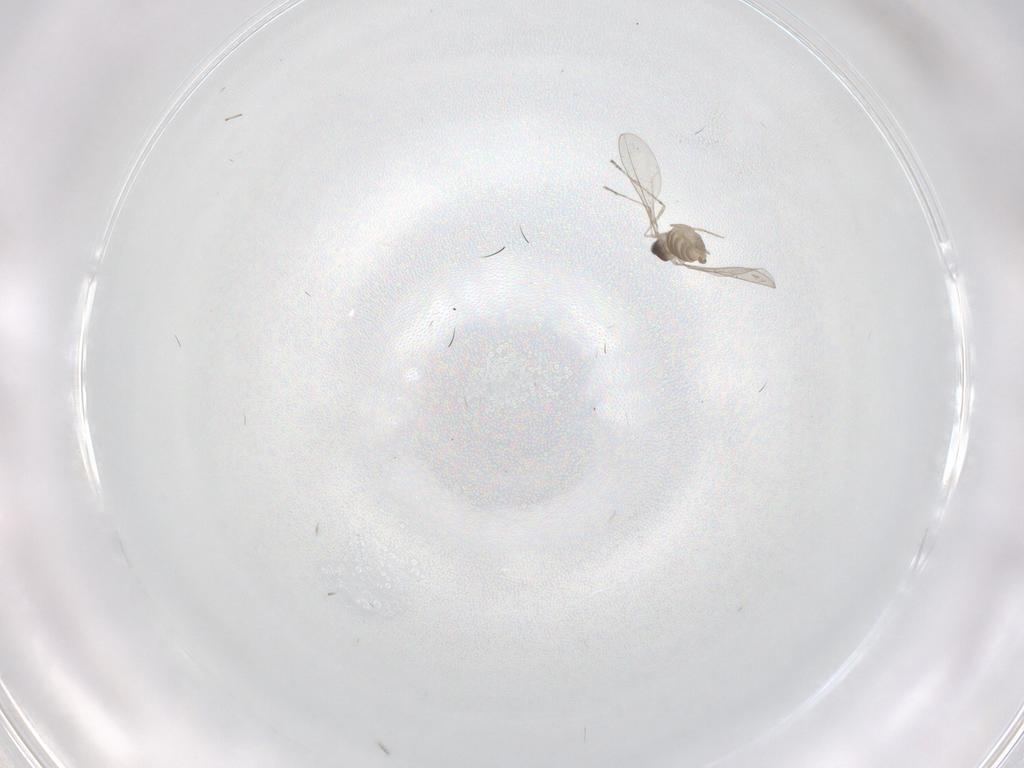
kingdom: Animalia
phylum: Arthropoda
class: Insecta
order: Diptera
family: Cecidomyiidae
